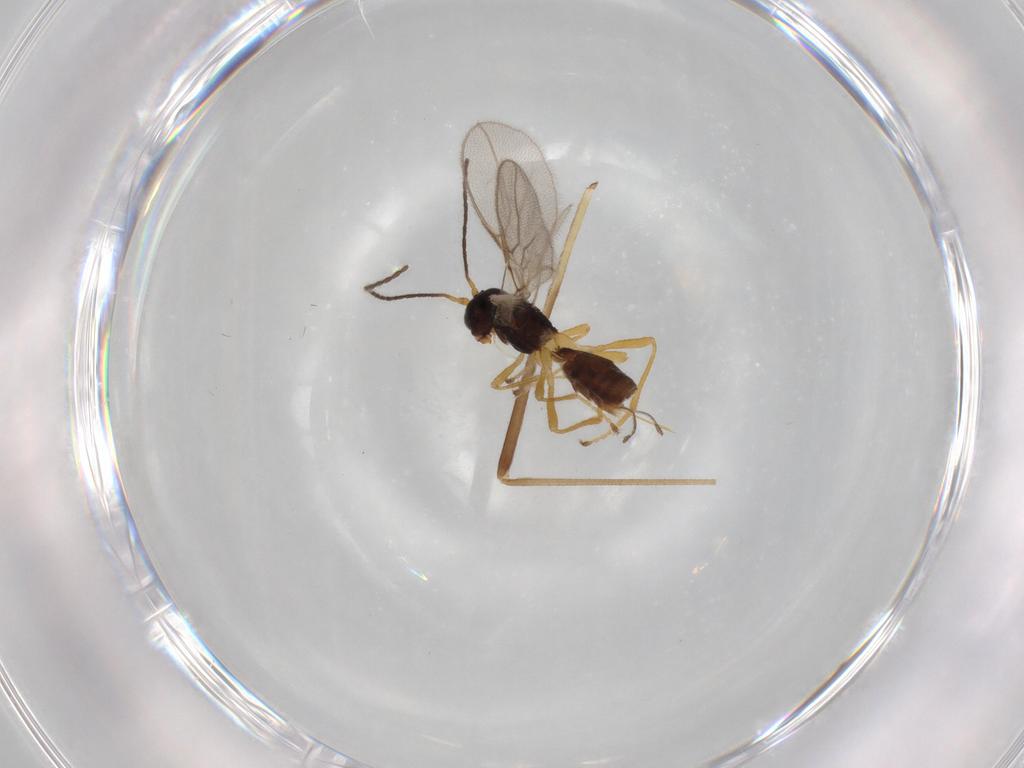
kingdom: Animalia
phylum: Arthropoda
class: Insecta
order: Hymenoptera
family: Braconidae
